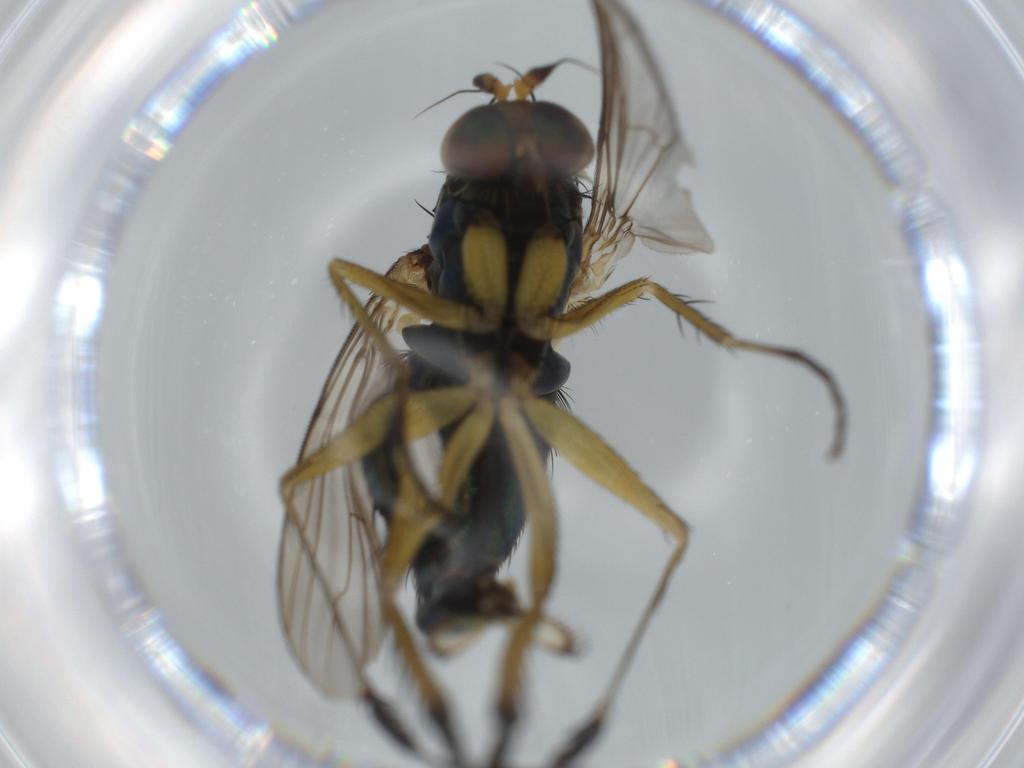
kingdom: Animalia
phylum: Arthropoda
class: Insecta
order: Diptera
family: Dolichopodidae
